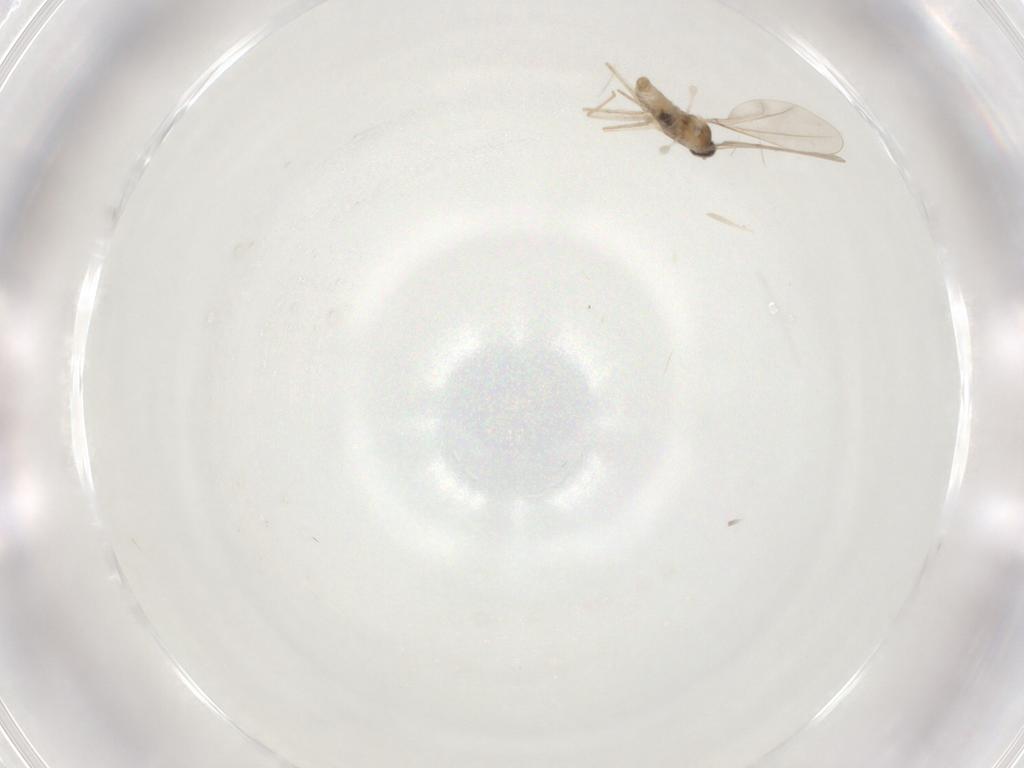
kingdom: Animalia
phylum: Arthropoda
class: Insecta
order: Diptera
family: Cecidomyiidae
